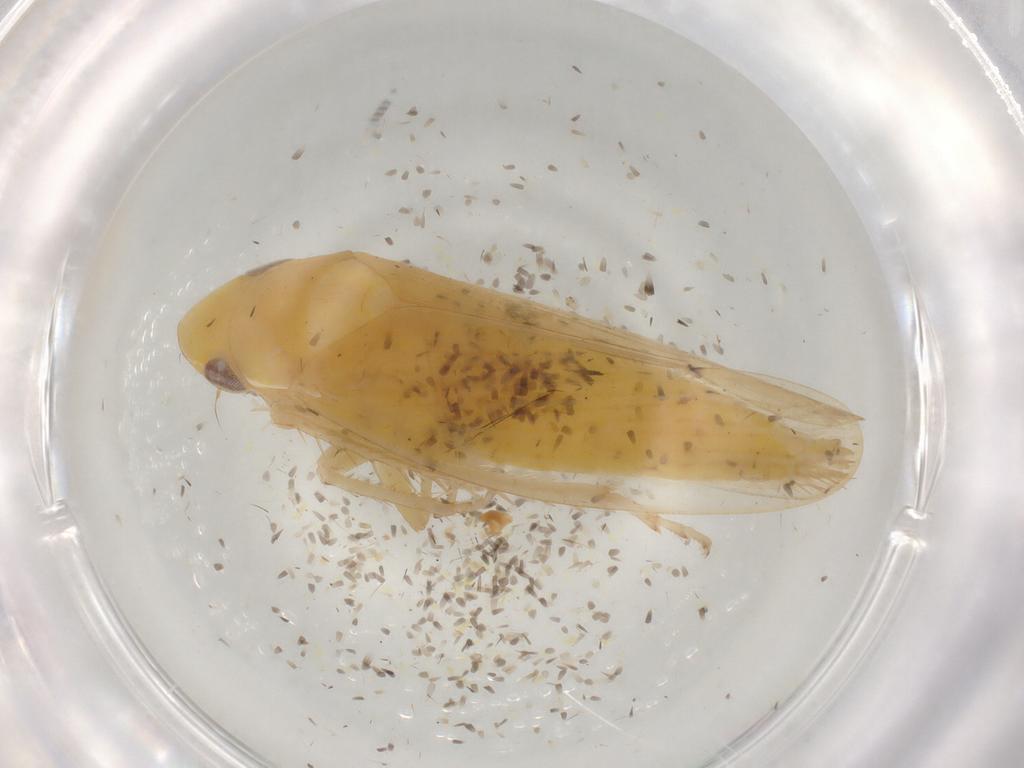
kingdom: Animalia
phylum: Arthropoda
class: Insecta
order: Hemiptera
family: Cicadellidae
